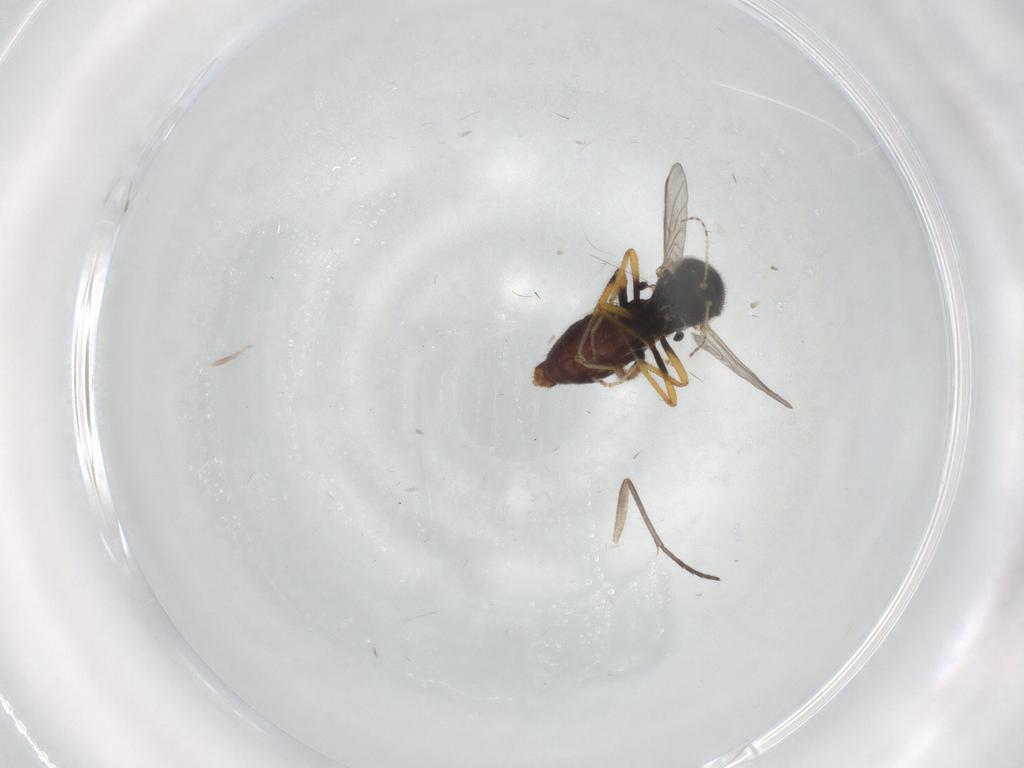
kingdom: Animalia
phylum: Arthropoda
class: Insecta
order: Diptera
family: Ceratopogonidae
